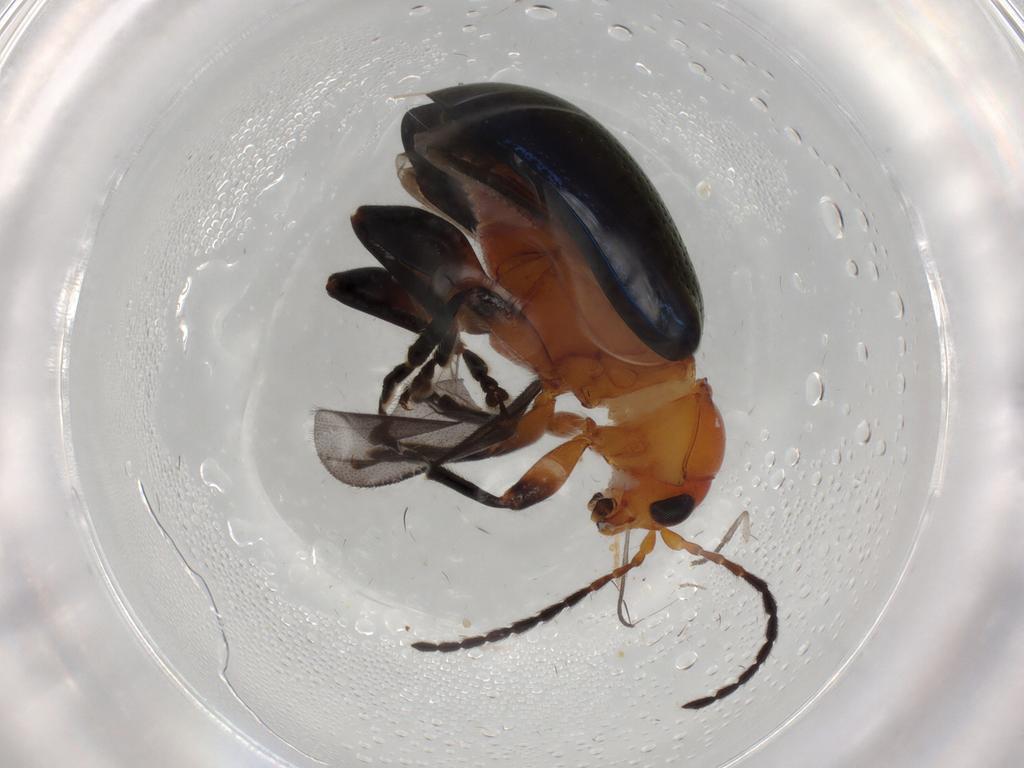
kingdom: Animalia
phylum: Arthropoda
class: Insecta
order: Coleoptera
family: Chrysomelidae
